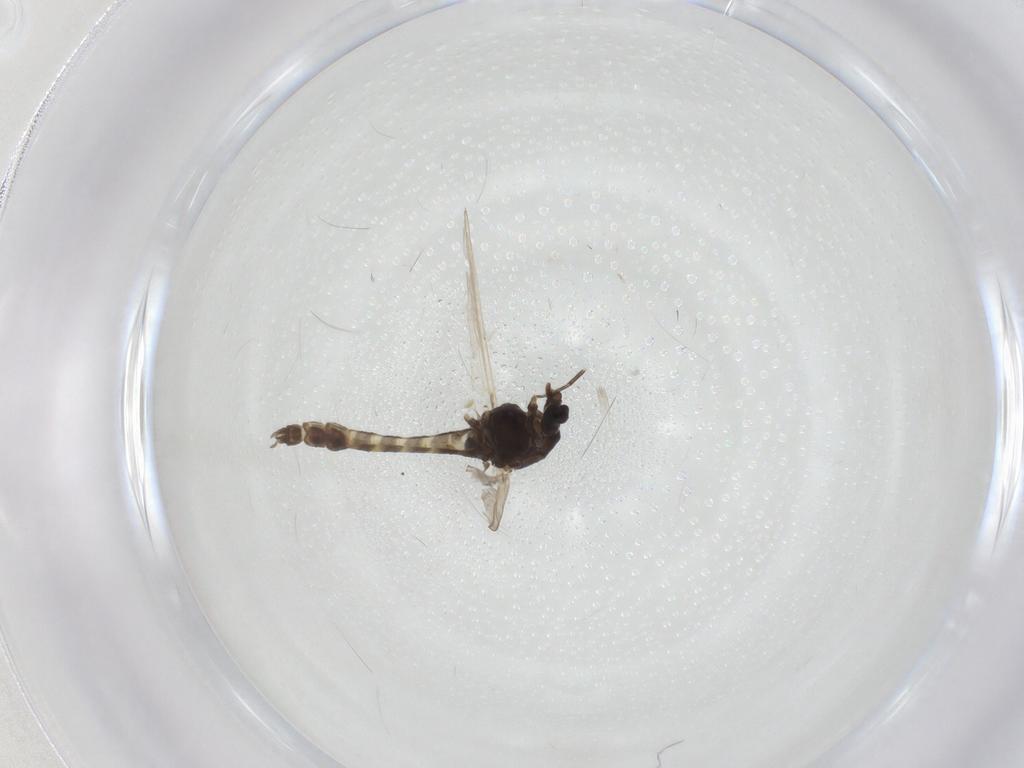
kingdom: Animalia
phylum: Arthropoda
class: Insecta
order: Diptera
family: Chironomidae
